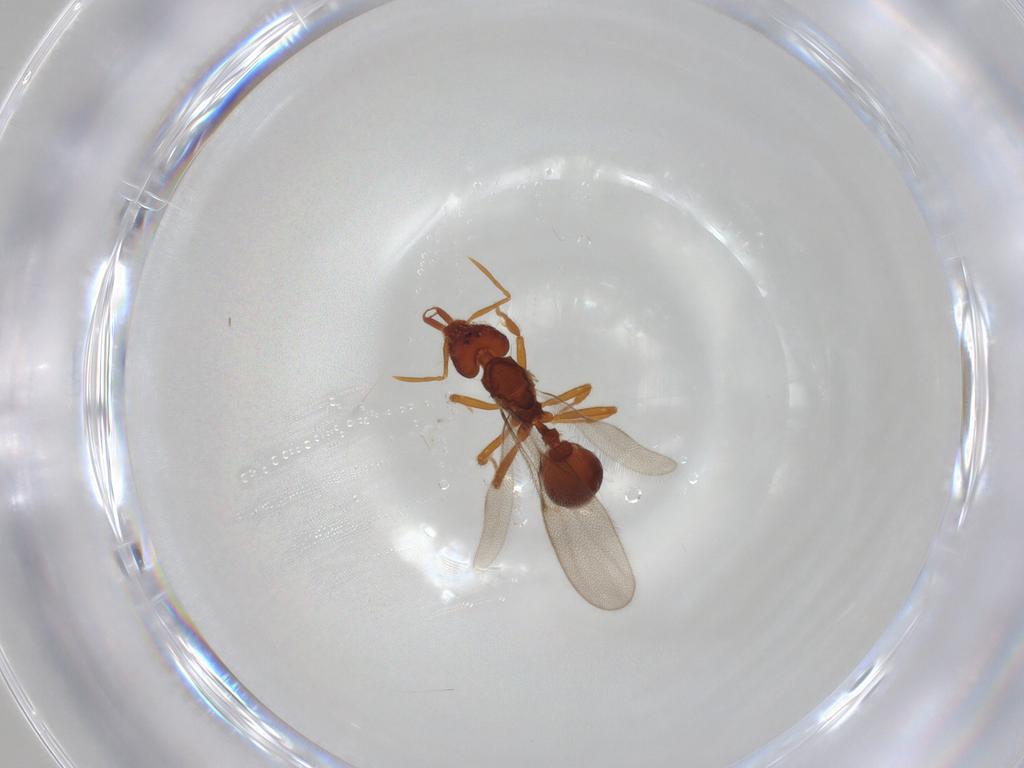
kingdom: Animalia
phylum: Arthropoda
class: Insecta
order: Hymenoptera
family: Formicidae
